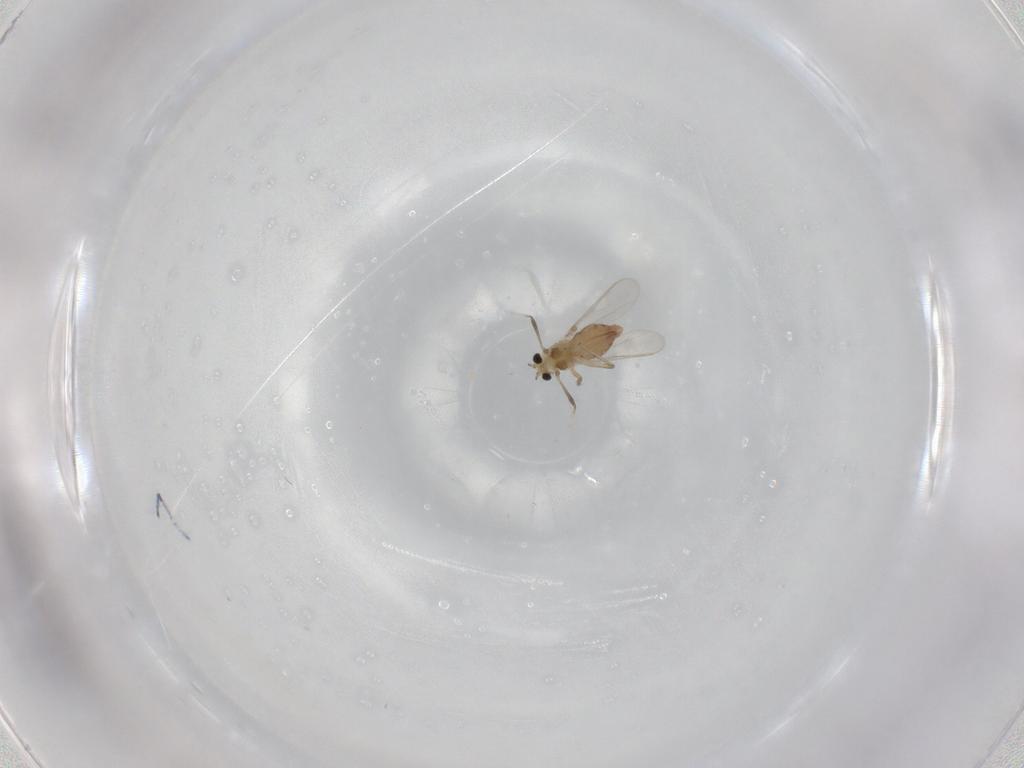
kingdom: Animalia
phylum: Arthropoda
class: Insecta
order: Diptera
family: Chironomidae
